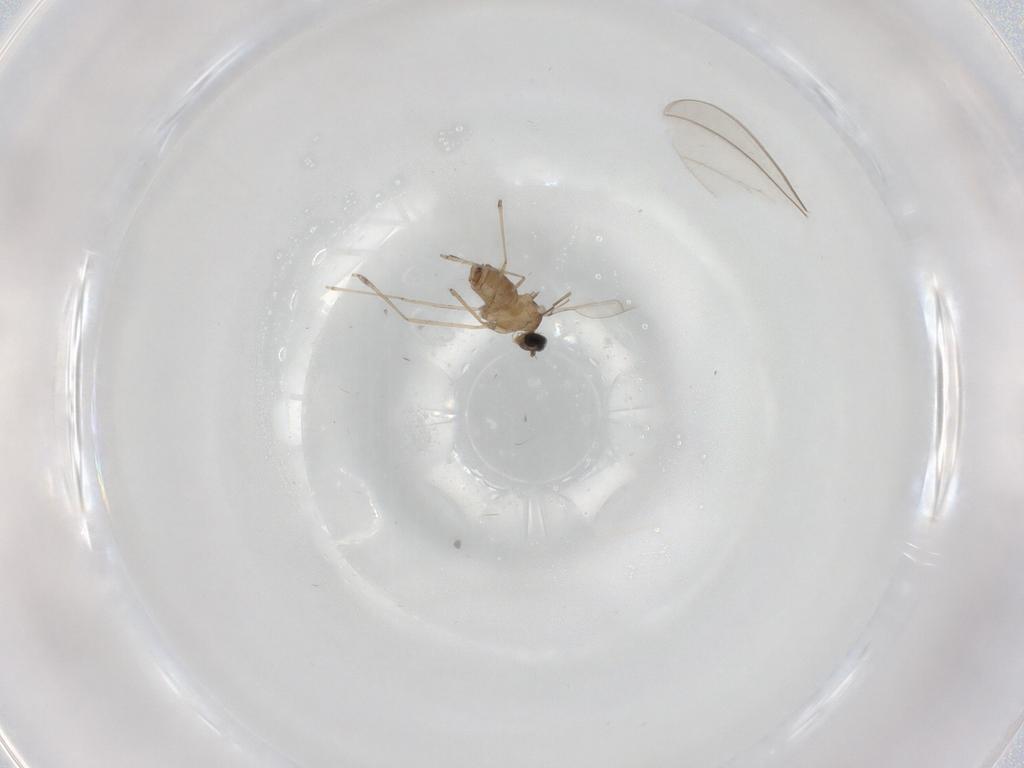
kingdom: Animalia
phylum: Arthropoda
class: Insecta
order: Diptera
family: Cecidomyiidae
